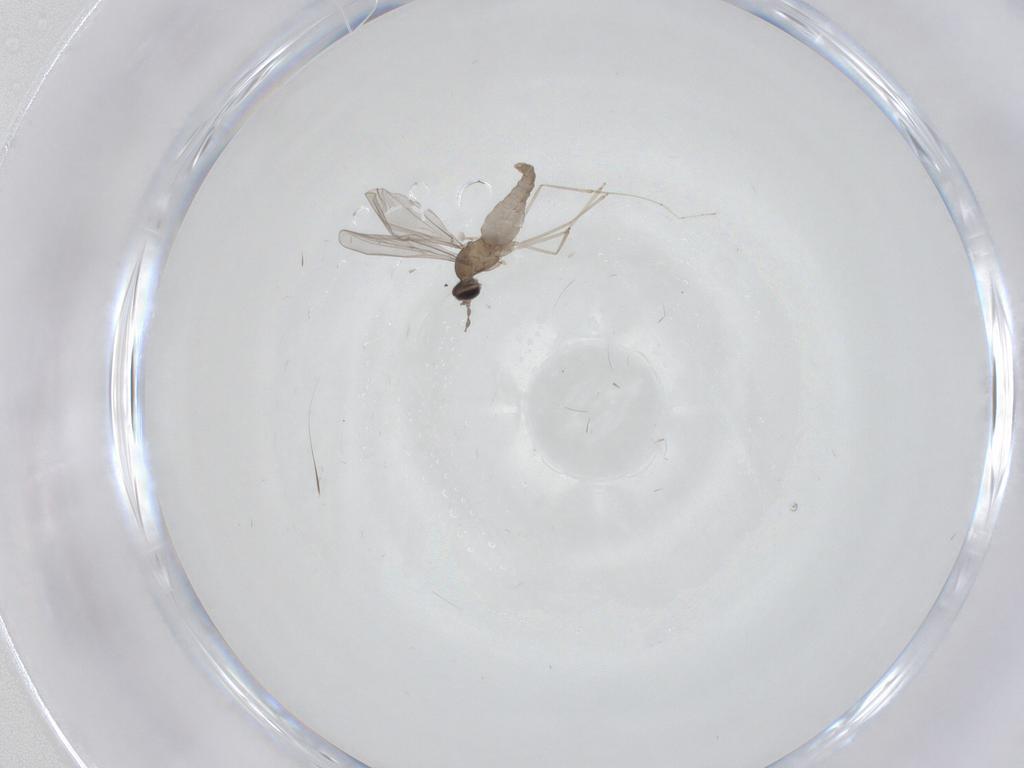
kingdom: Animalia
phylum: Arthropoda
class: Insecta
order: Diptera
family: Cecidomyiidae
